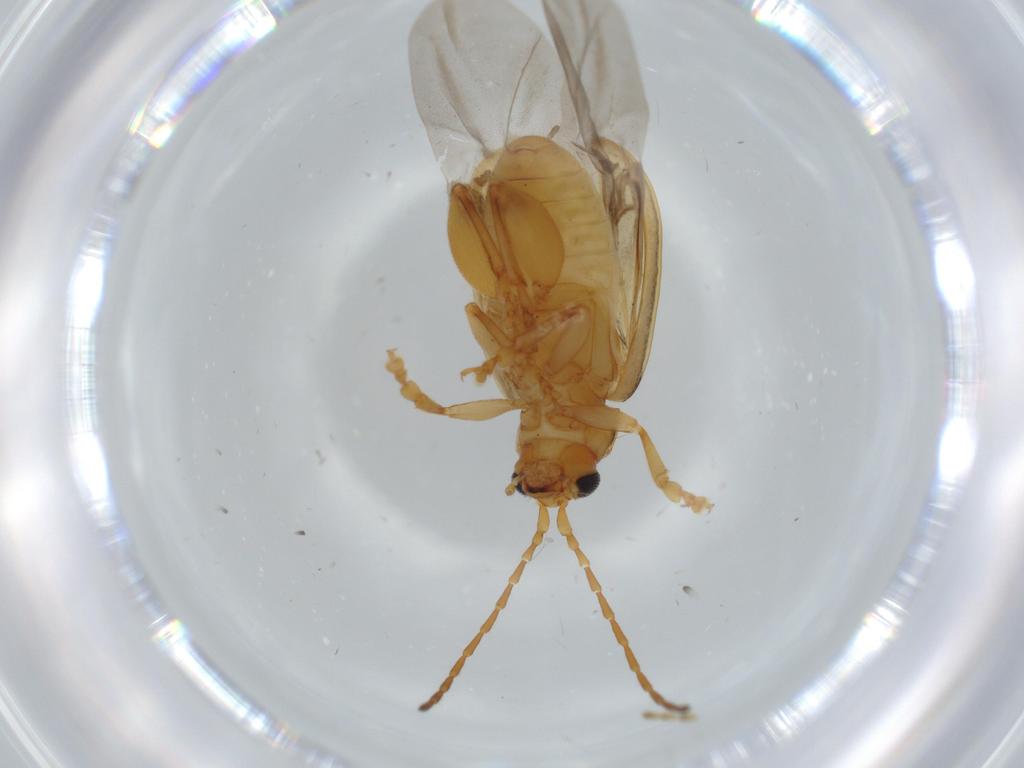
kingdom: Animalia
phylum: Arthropoda
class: Insecta
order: Coleoptera
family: Chrysomelidae
